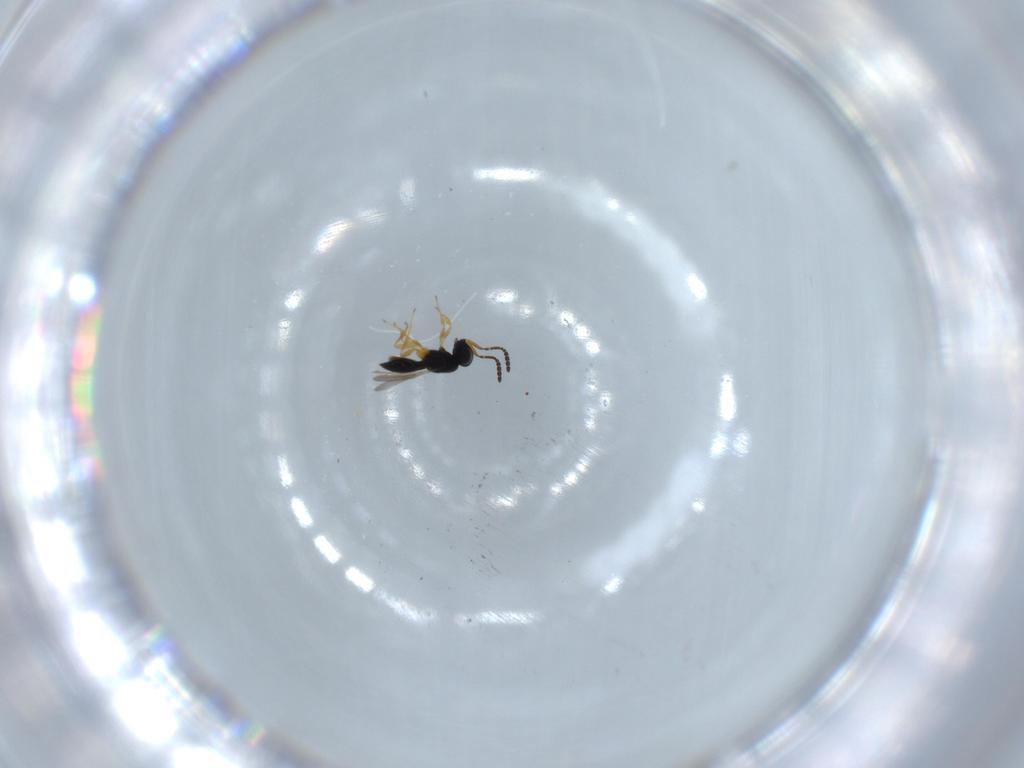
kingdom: Animalia
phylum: Arthropoda
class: Insecta
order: Hymenoptera
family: Scelionidae
